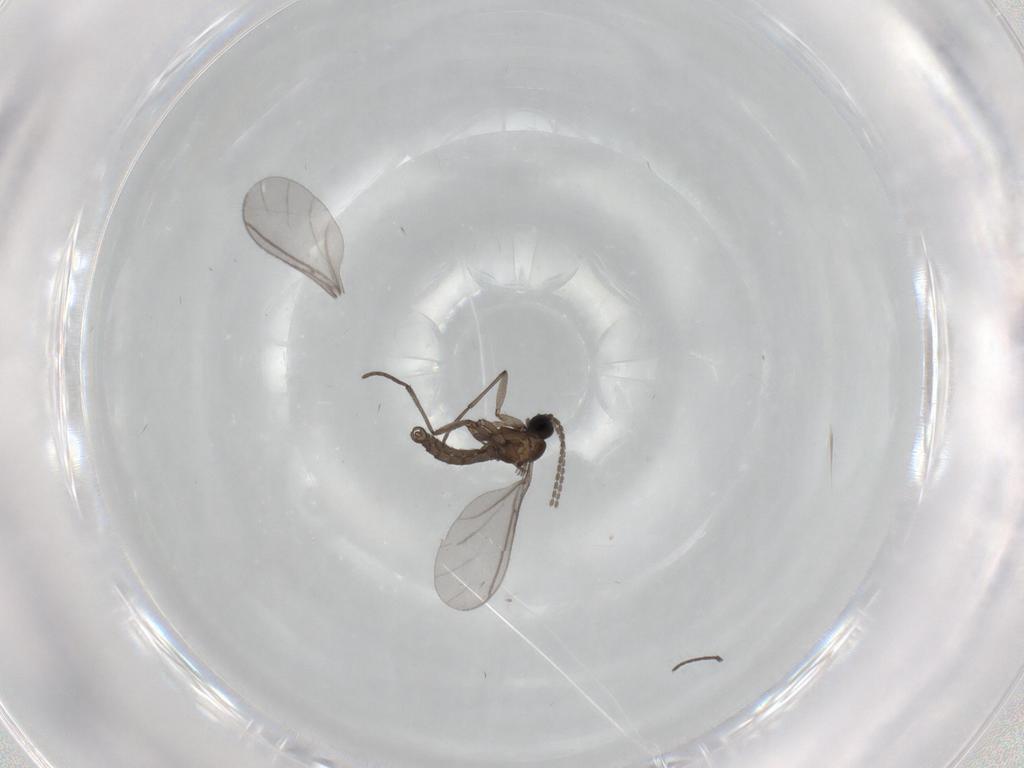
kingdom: Animalia
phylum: Arthropoda
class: Insecta
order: Diptera
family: Sciaridae
